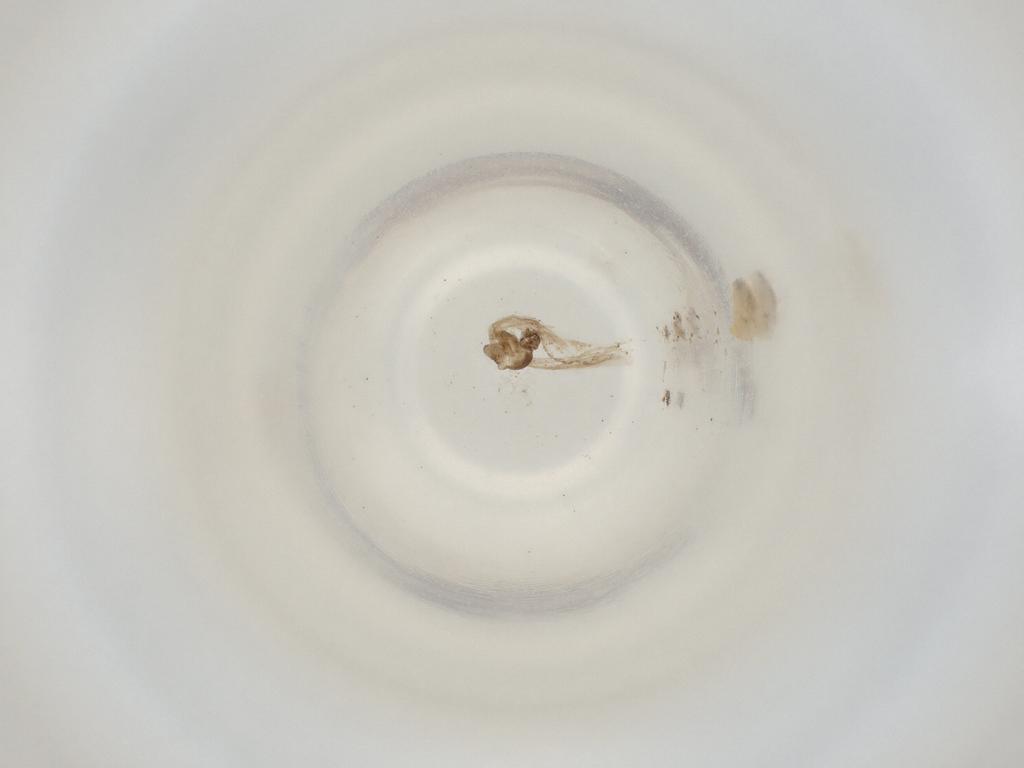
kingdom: Animalia
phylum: Arthropoda
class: Insecta
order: Diptera
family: Cecidomyiidae
